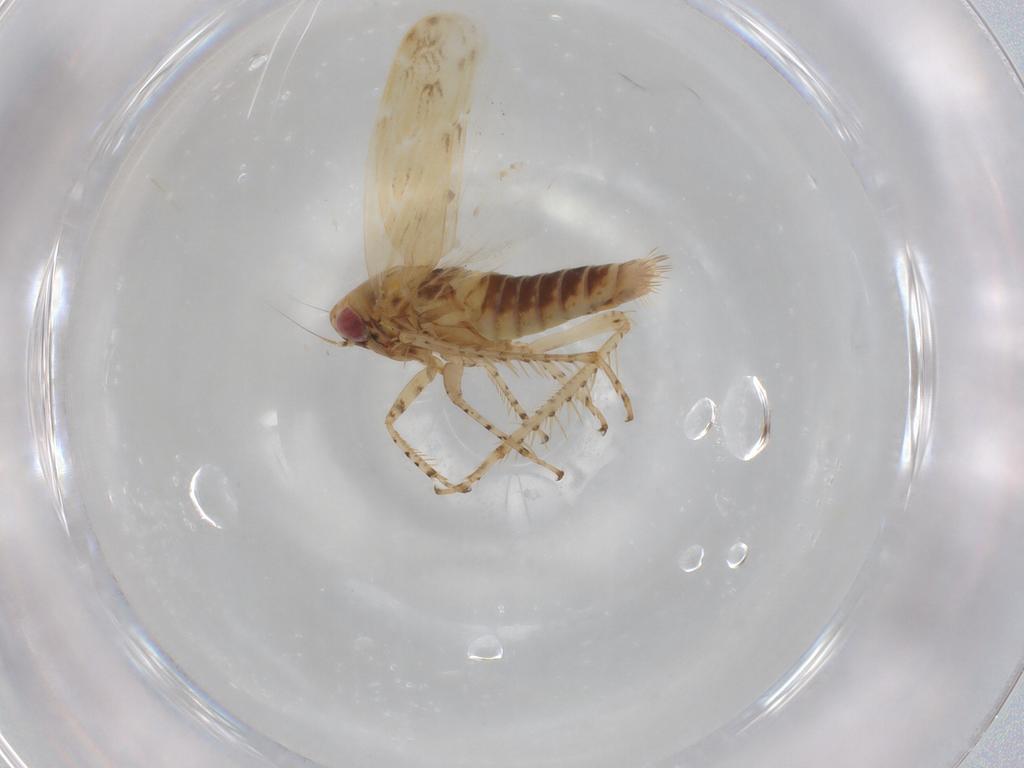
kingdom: Animalia
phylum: Arthropoda
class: Insecta
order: Hemiptera
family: Cicadellidae
